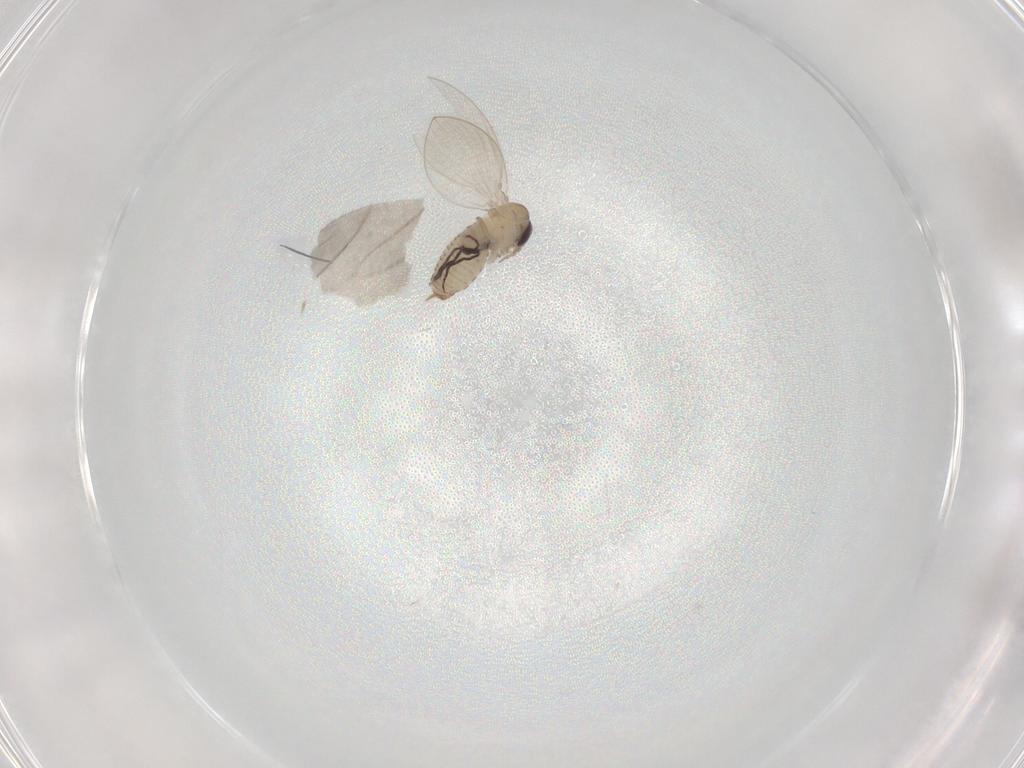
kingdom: Animalia
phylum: Arthropoda
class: Insecta
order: Diptera
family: Psychodidae
